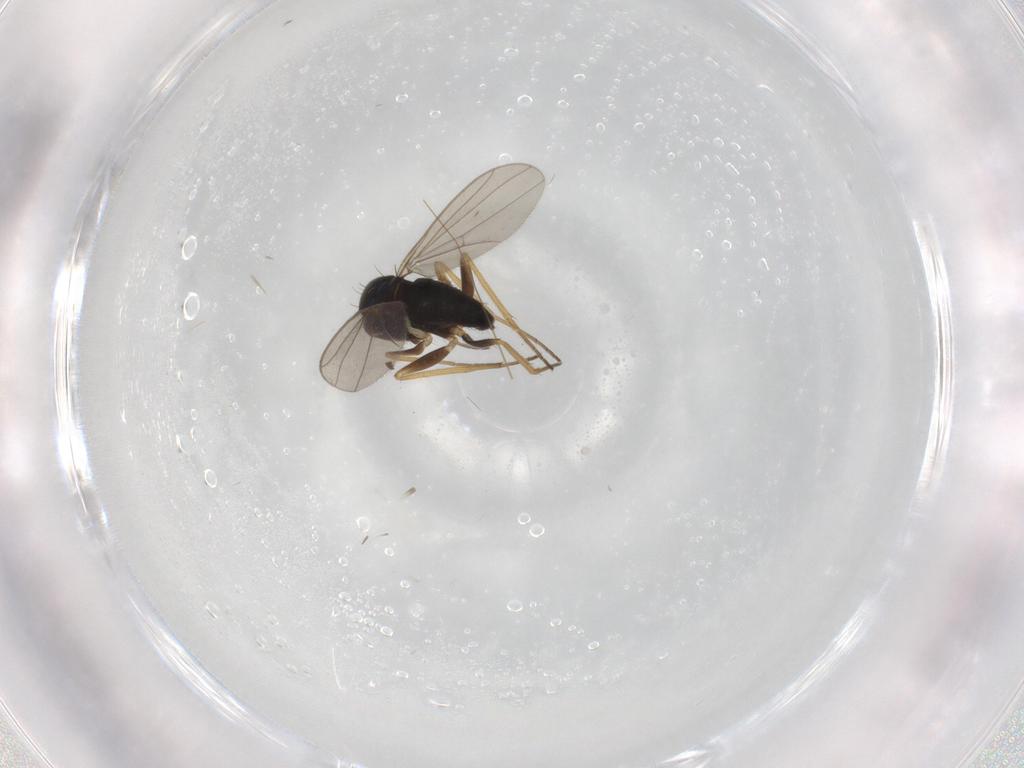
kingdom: Animalia
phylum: Arthropoda
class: Insecta
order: Diptera
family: Dolichopodidae
